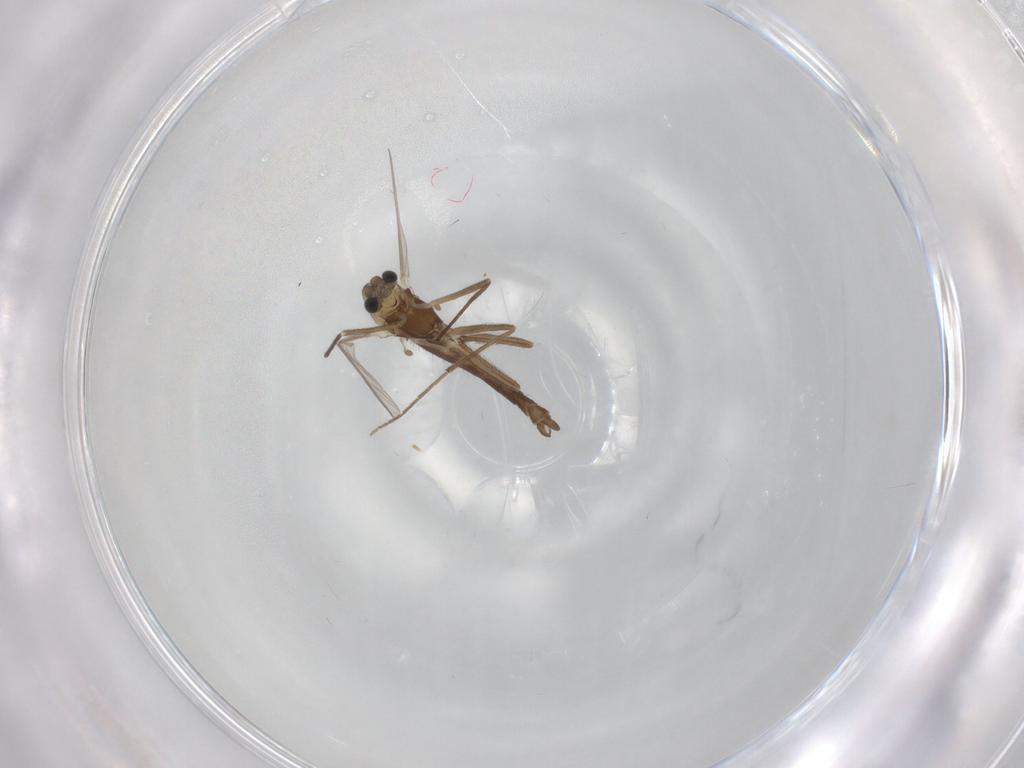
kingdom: Animalia
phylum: Arthropoda
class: Insecta
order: Diptera
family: Chironomidae
